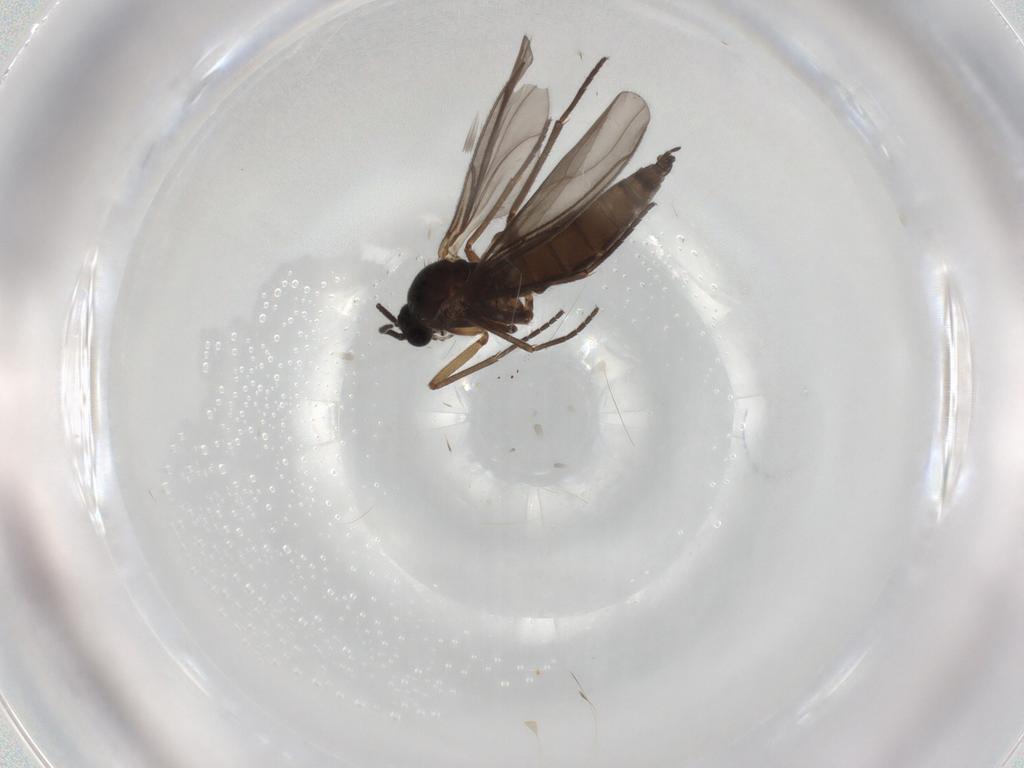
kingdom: Animalia
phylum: Arthropoda
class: Insecta
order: Diptera
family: Sciaridae
